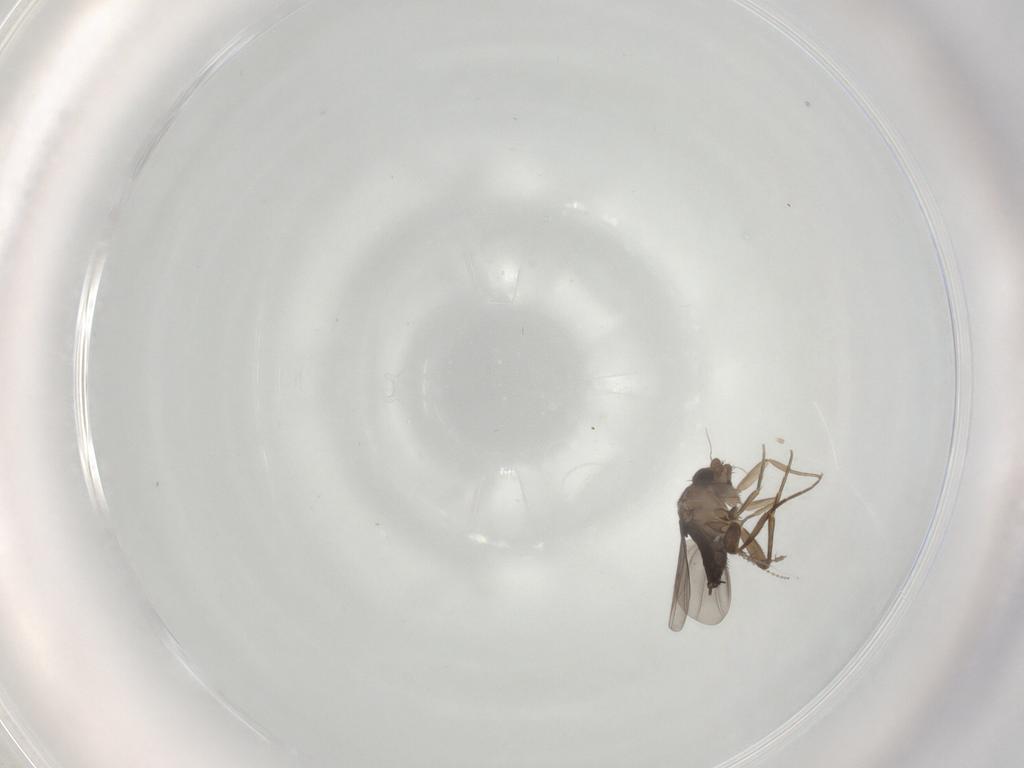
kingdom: Animalia
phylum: Arthropoda
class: Insecta
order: Diptera
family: Phoridae
